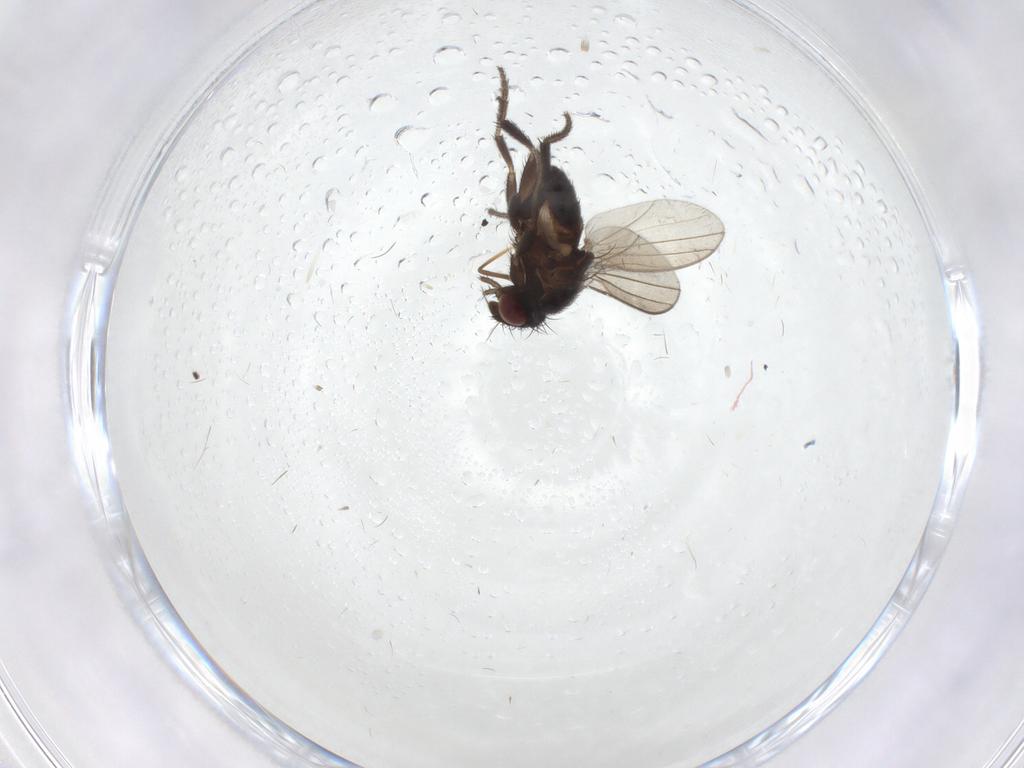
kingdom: Animalia
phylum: Arthropoda
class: Insecta
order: Diptera
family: Milichiidae
